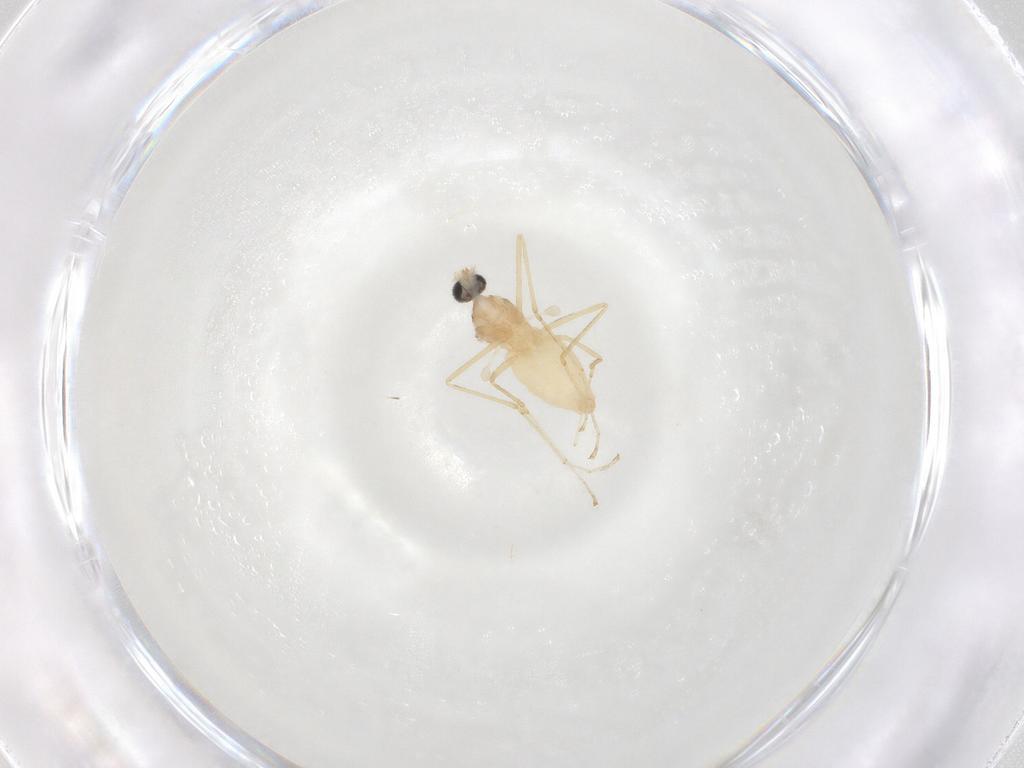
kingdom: Animalia
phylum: Arthropoda
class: Insecta
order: Diptera
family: Cecidomyiidae
